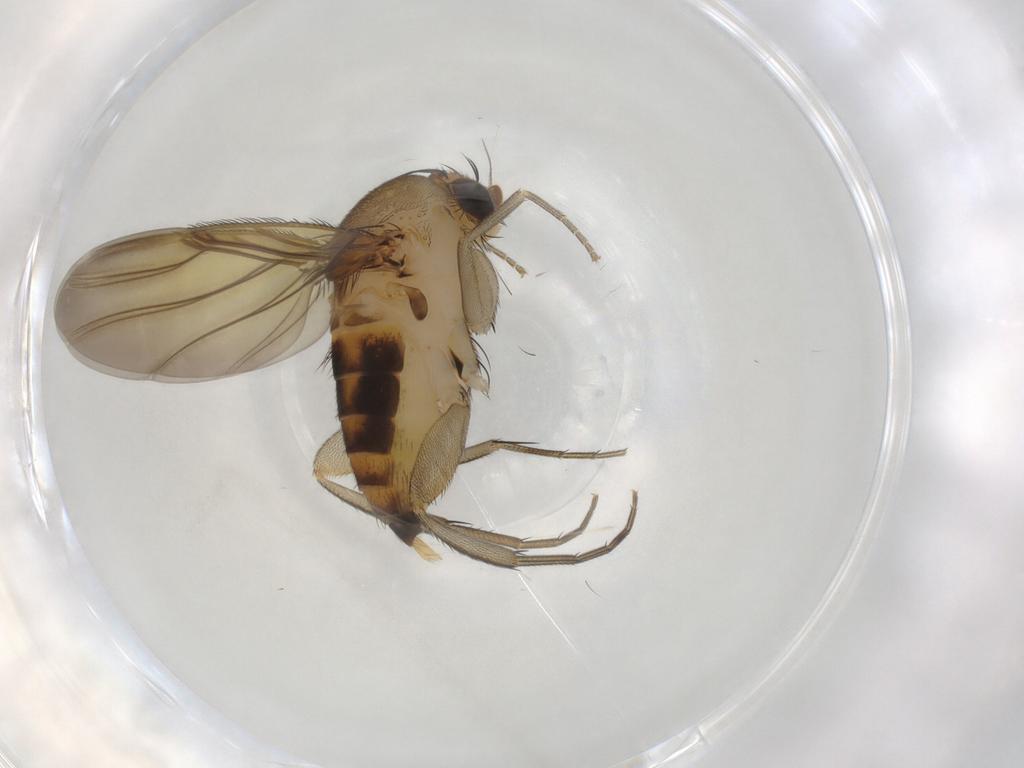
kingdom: Animalia
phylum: Arthropoda
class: Insecta
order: Diptera
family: Phoridae
